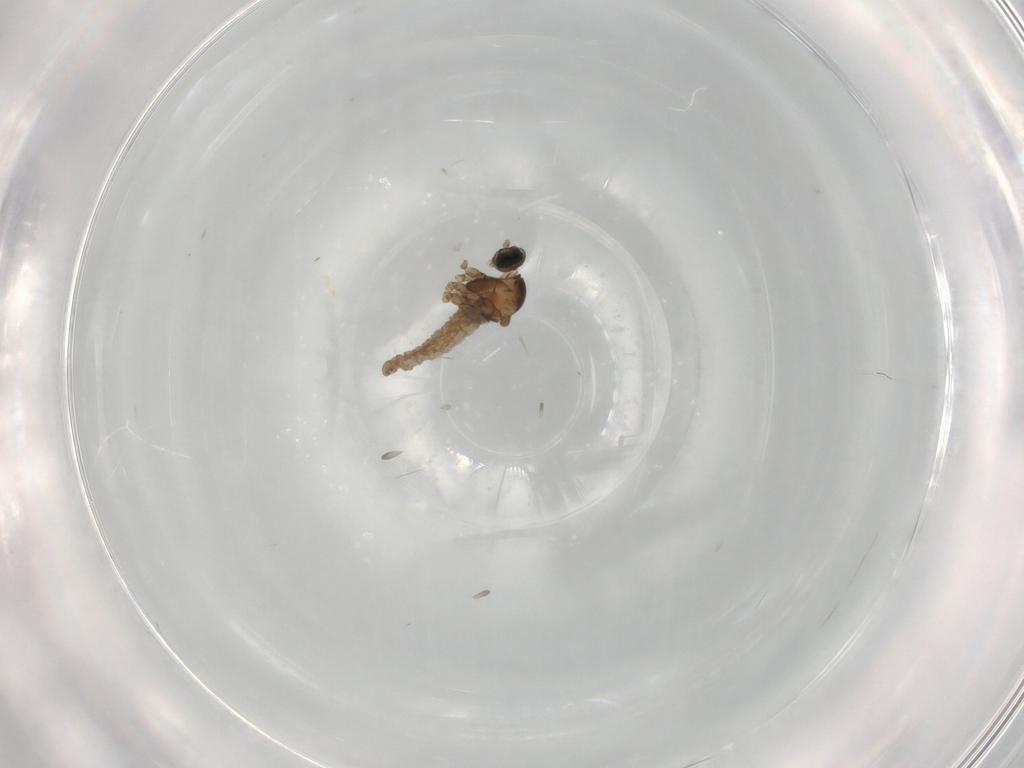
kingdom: Animalia
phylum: Arthropoda
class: Insecta
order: Diptera
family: Cecidomyiidae
